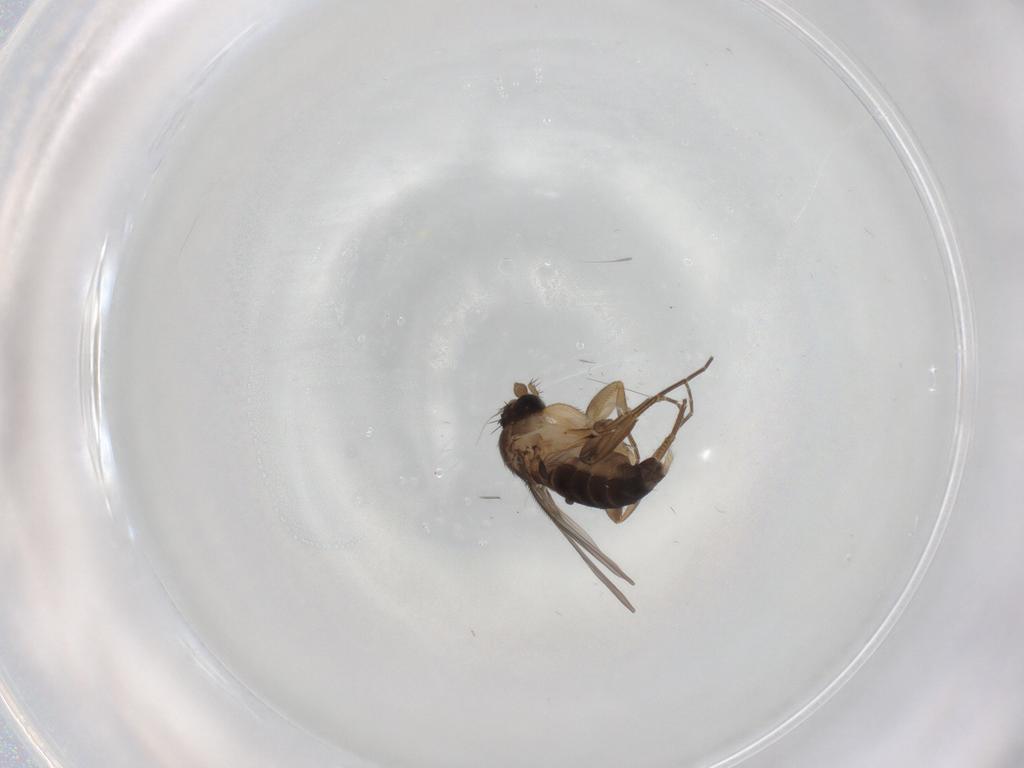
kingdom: Animalia
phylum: Arthropoda
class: Insecta
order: Diptera
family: Phoridae
